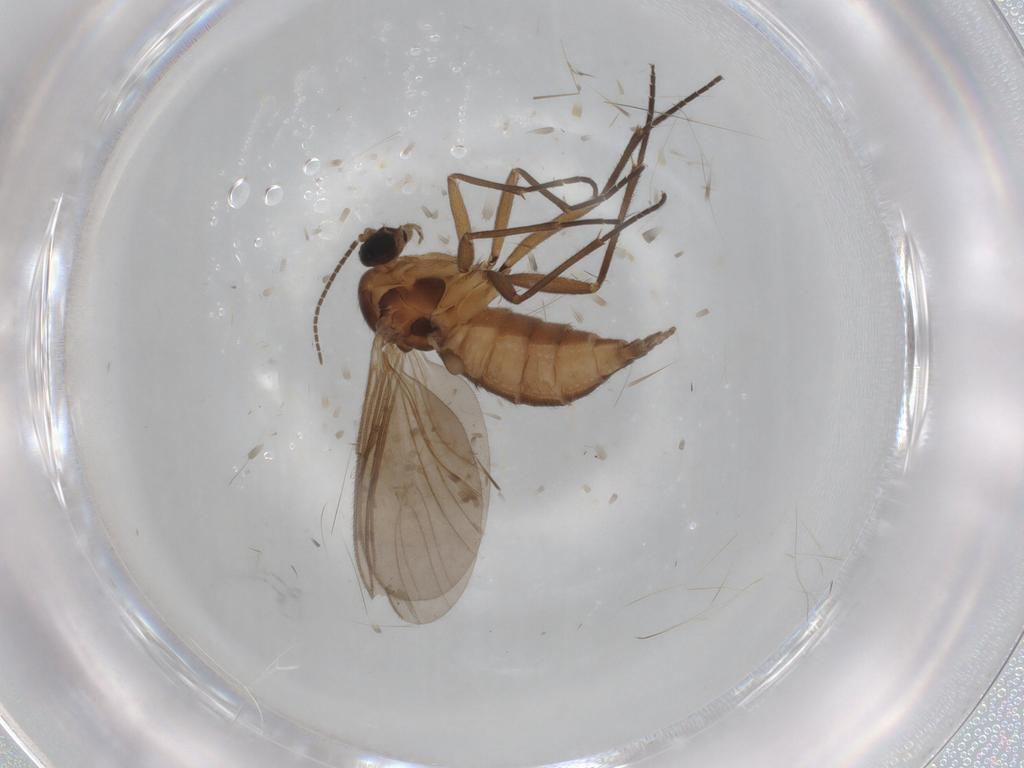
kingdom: Animalia
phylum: Arthropoda
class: Insecta
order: Diptera
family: Sciaridae
